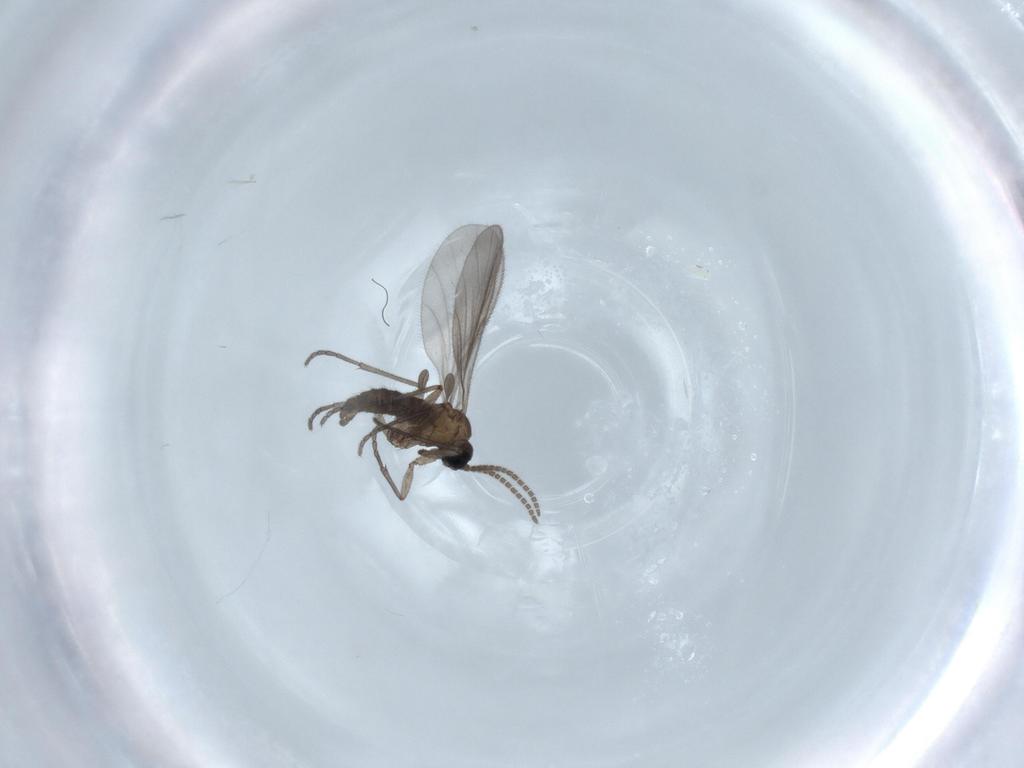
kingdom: Animalia
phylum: Arthropoda
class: Insecta
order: Diptera
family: Sciaridae
